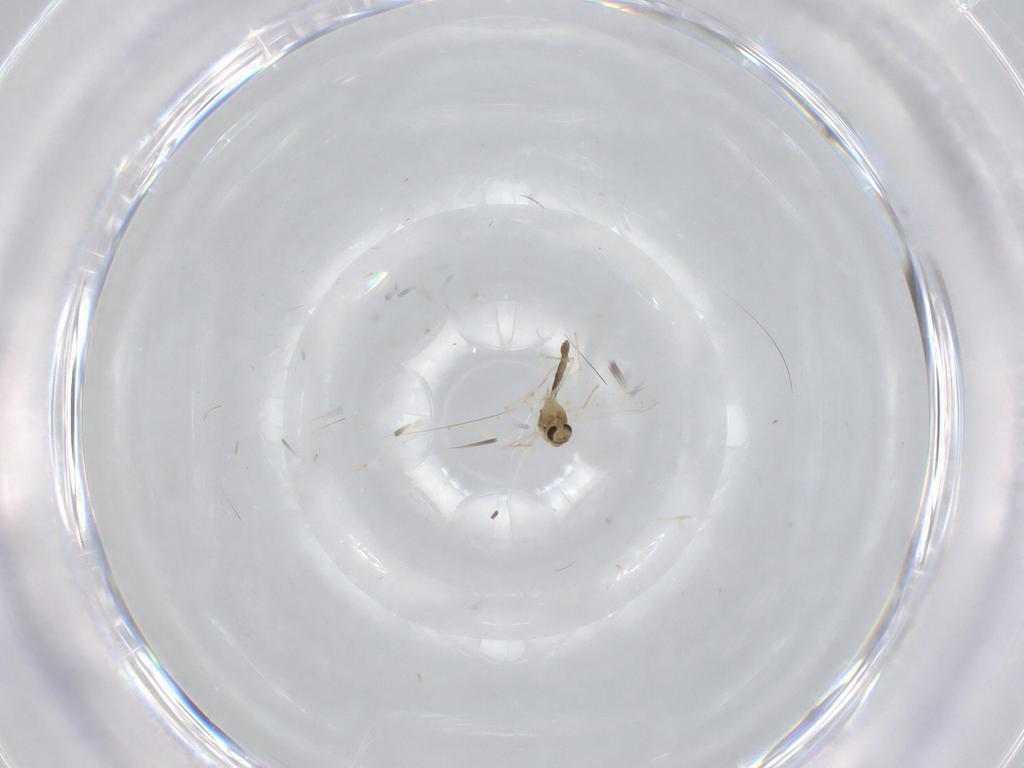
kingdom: Animalia
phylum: Arthropoda
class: Insecta
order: Diptera
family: Chironomidae
